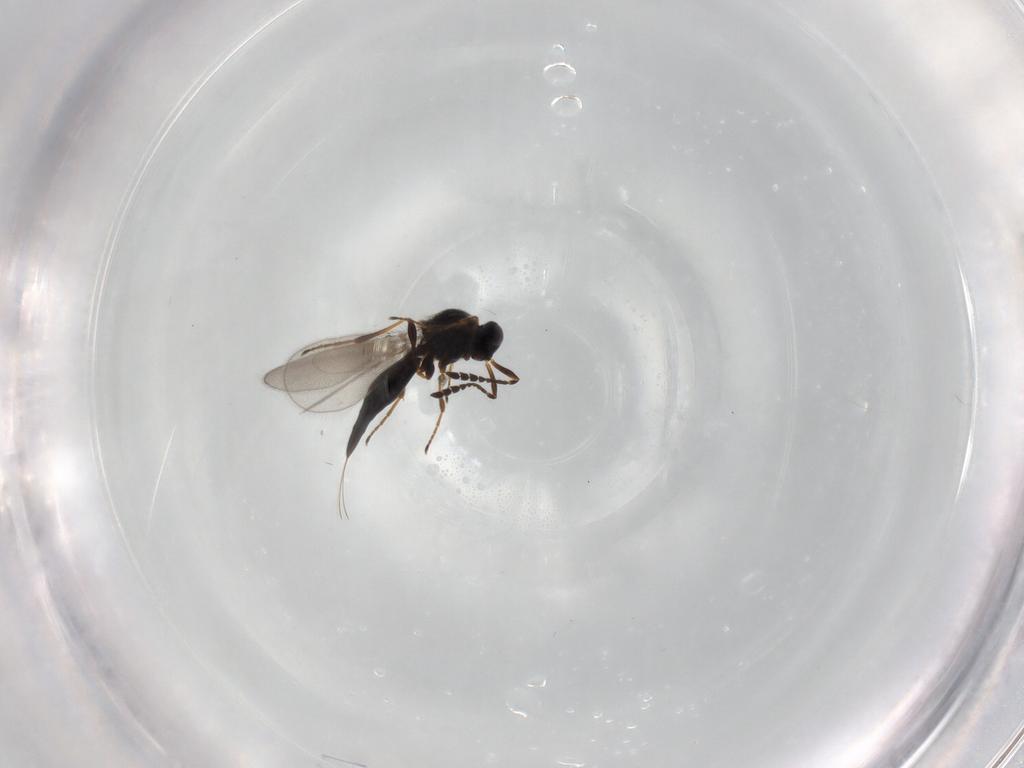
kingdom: Animalia
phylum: Arthropoda
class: Insecta
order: Hymenoptera
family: Platygastridae
